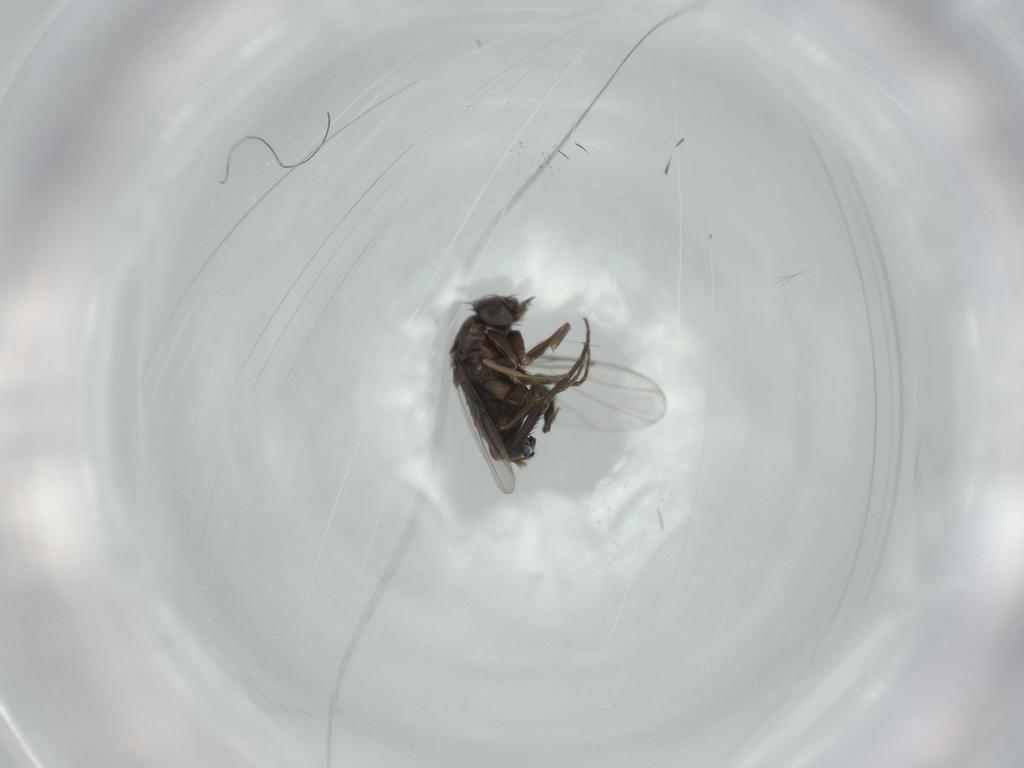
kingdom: Animalia
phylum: Arthropoda
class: Insecta
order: Diptera
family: Phoridae
